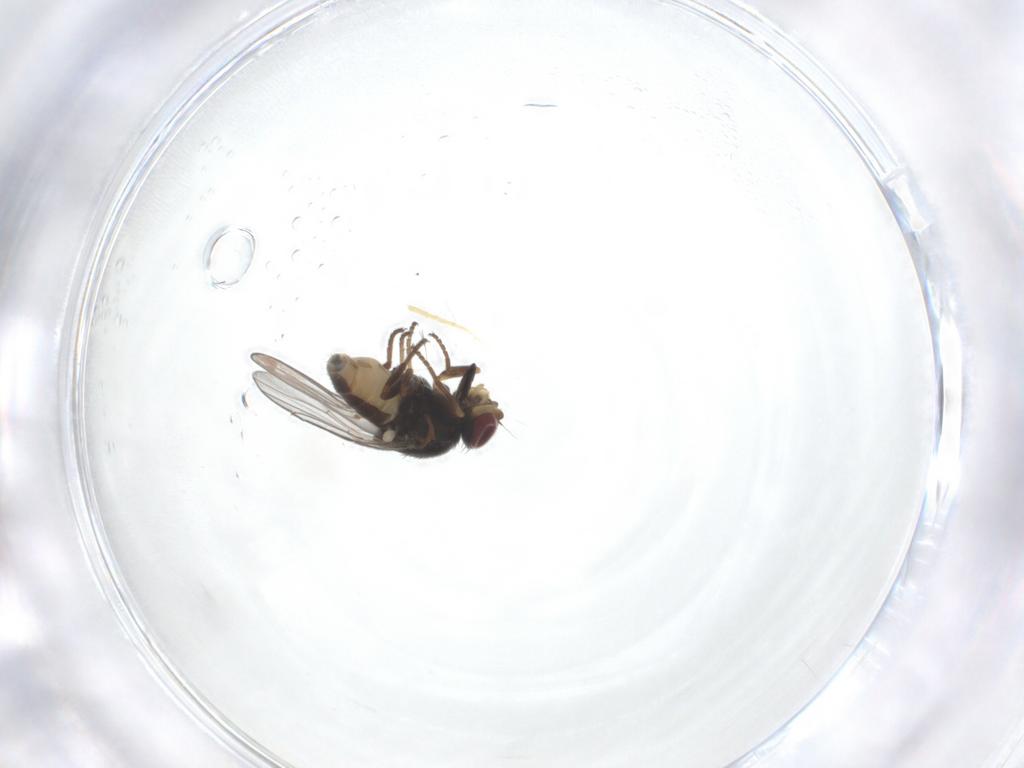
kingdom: Animalia
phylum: Arthropoda
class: Insecta
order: Diptera
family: Chloropidae
